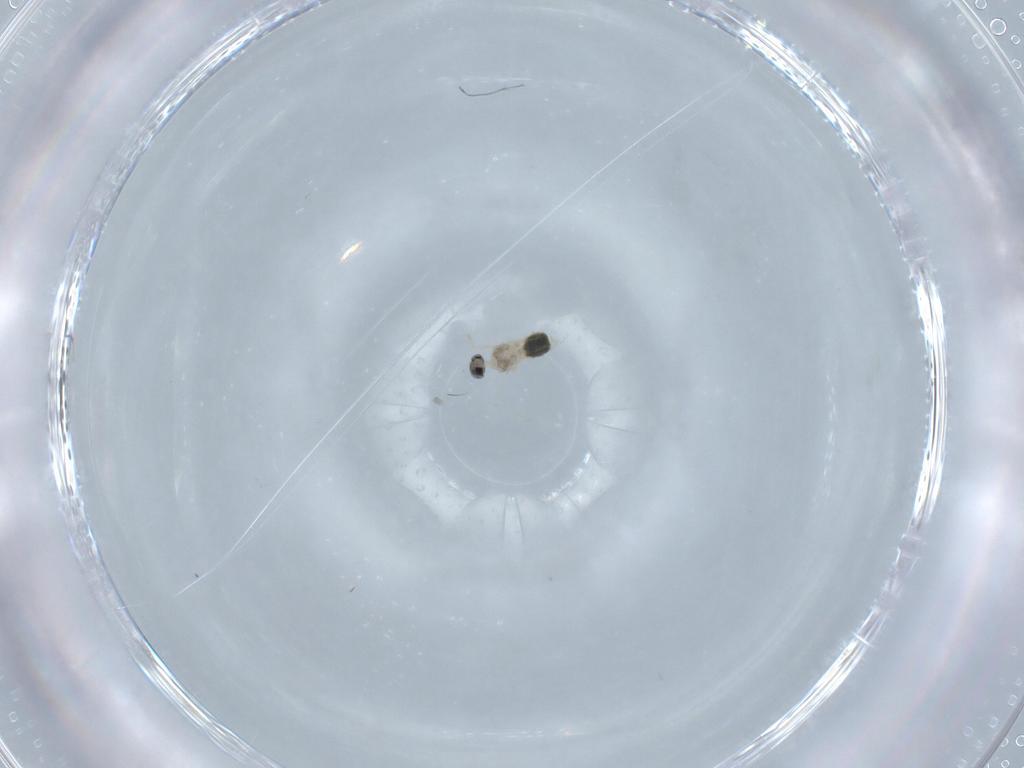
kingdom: Animalia
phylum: Arthropoda
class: Insecta
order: Diptera
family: Cecidomyiidae
